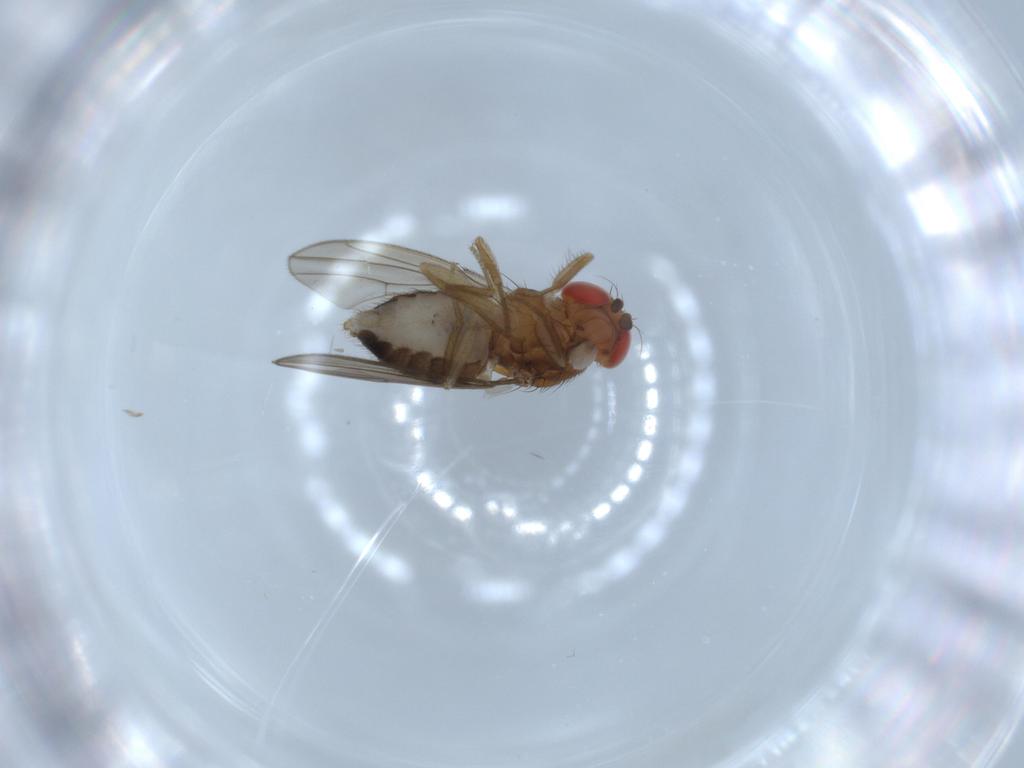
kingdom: Animalia
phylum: Arthropoda
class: Insecta
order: Diptera
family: Drosophilidae
